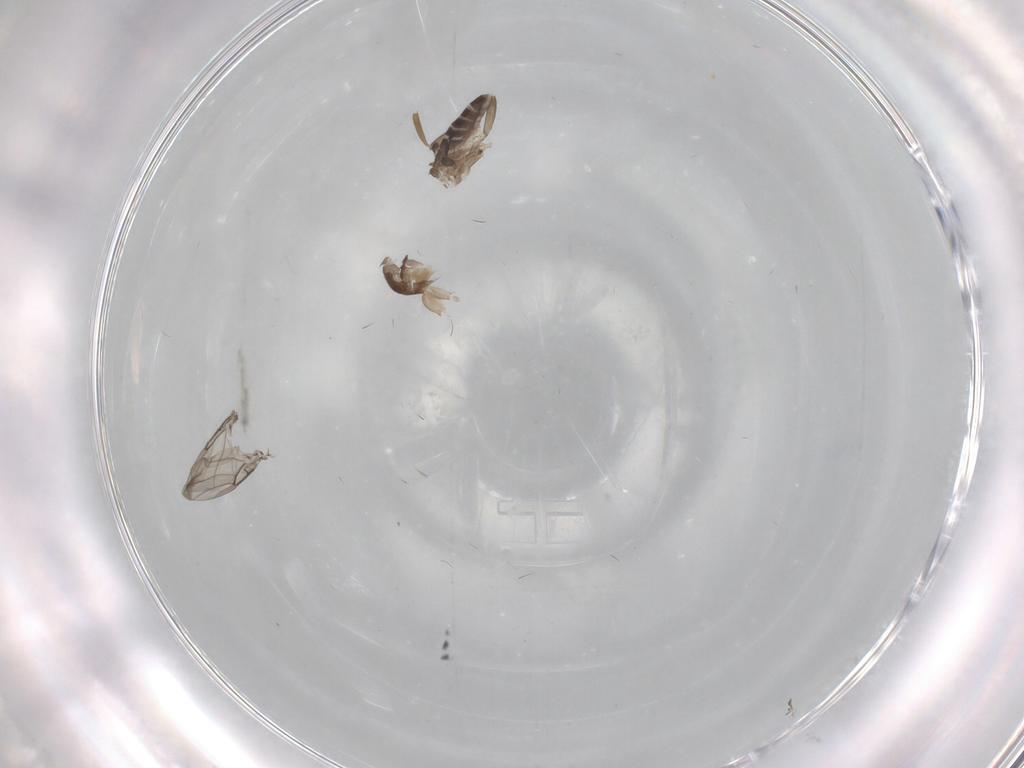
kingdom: Animalia
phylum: Arthropoda
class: Insecta
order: Diptera
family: Phoridae
